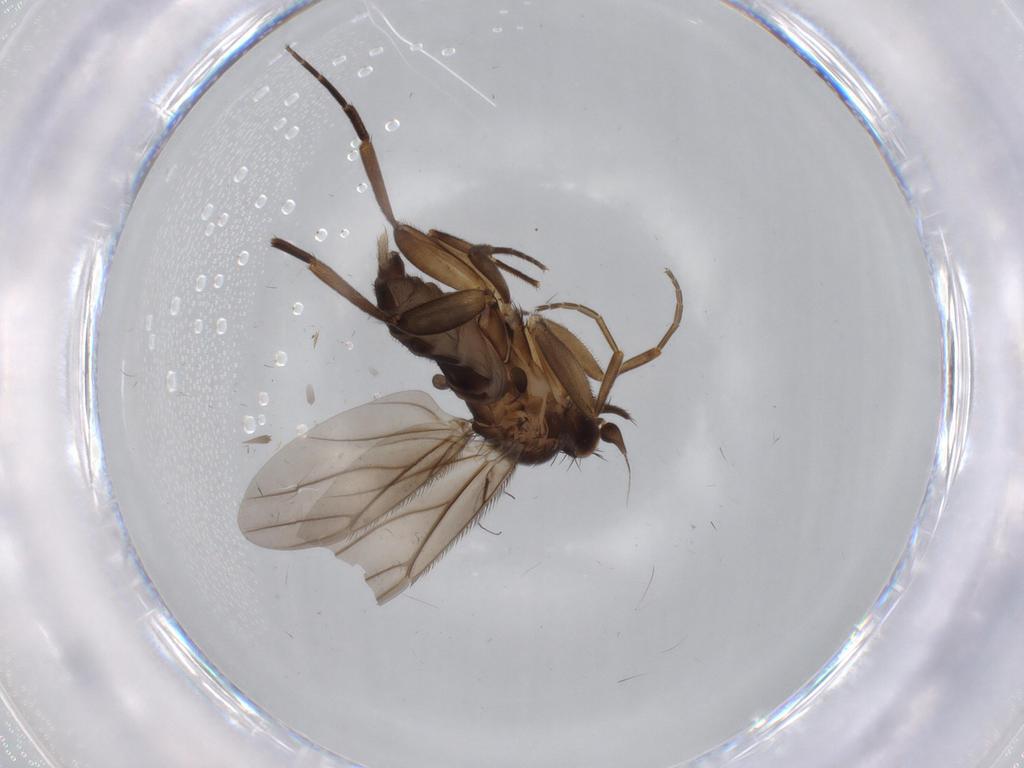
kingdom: Animalia
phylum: Arthropoda
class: Insecta
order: Diptera
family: Phoridae
